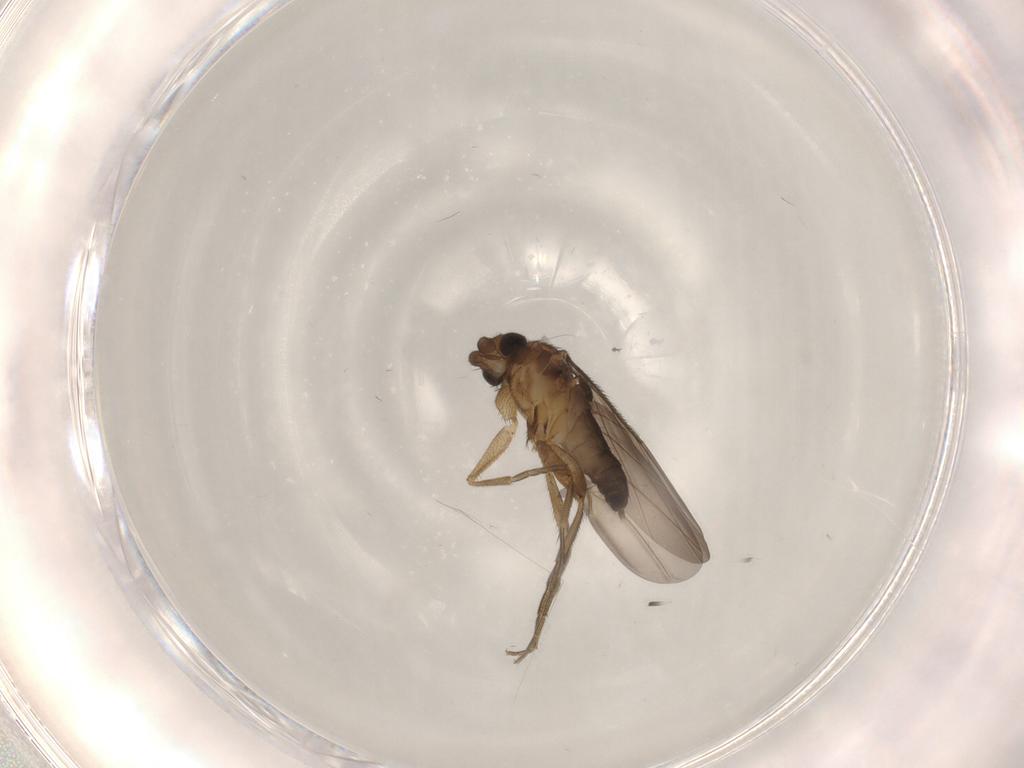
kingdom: Animalia
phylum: Arthropoda
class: Insecta
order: Diptera
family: Phoridae
